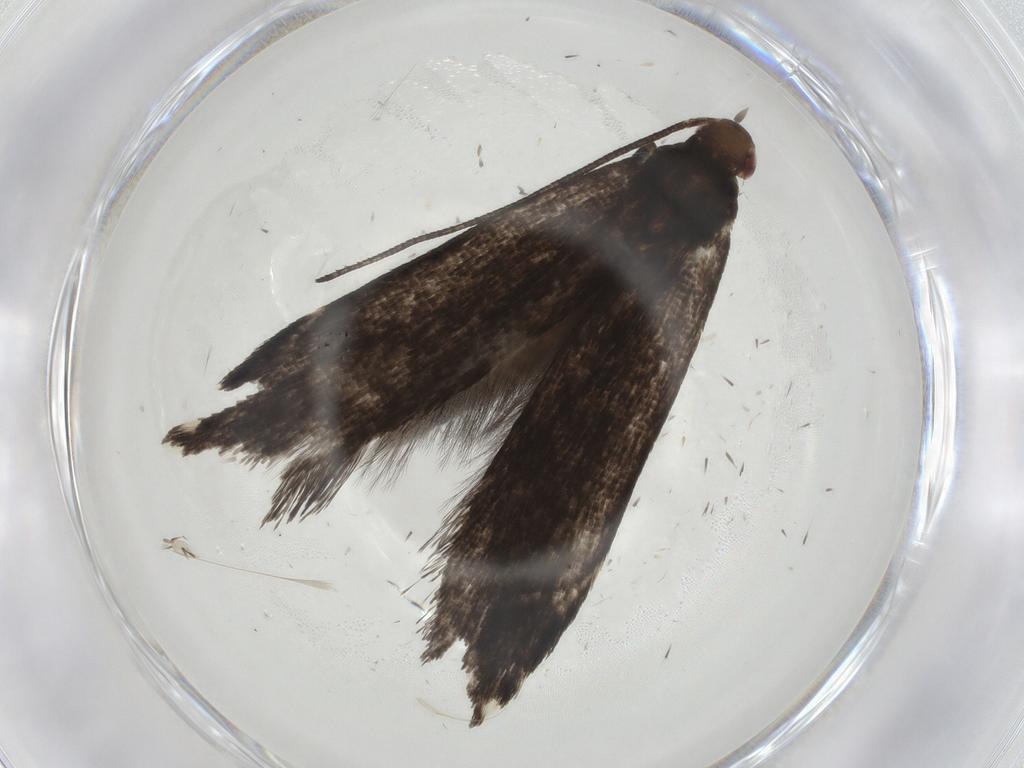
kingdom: Animalia
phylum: Arthropoda
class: Insecta
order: Lepidoptera
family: Gelechiidae
